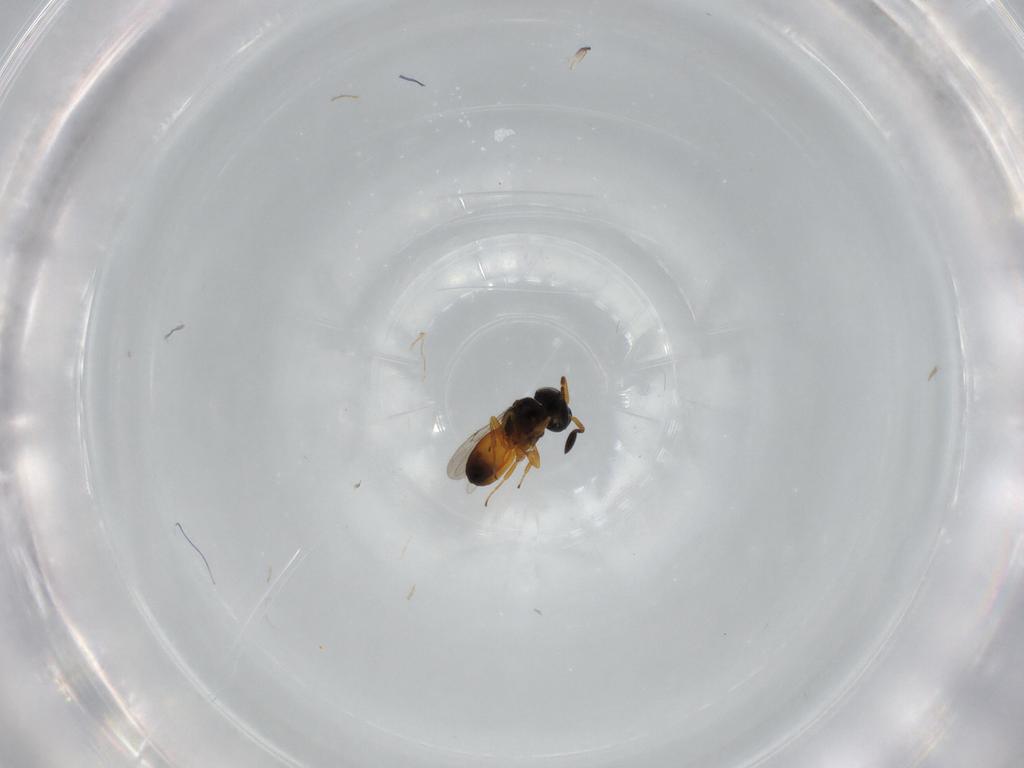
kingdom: Animalia
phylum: Arthropoda
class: Insecta
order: Hymenoptera
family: Scelionidae
